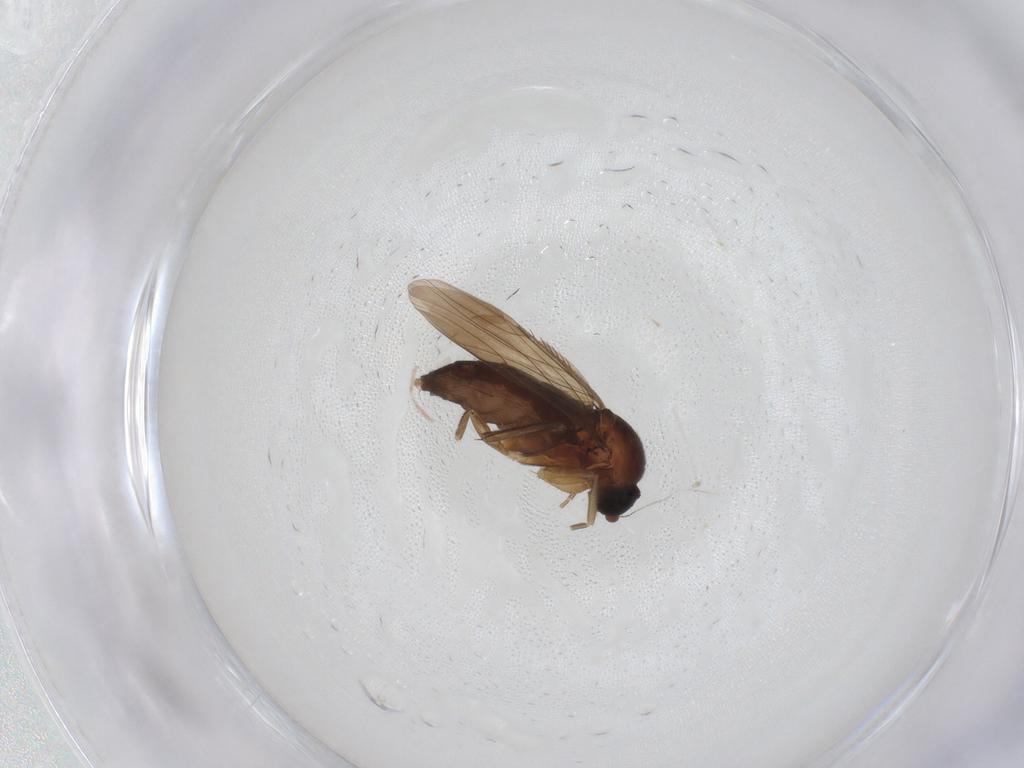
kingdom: Animalia
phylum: Arthropoda
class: Insecta
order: Diptera
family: Phoridae
